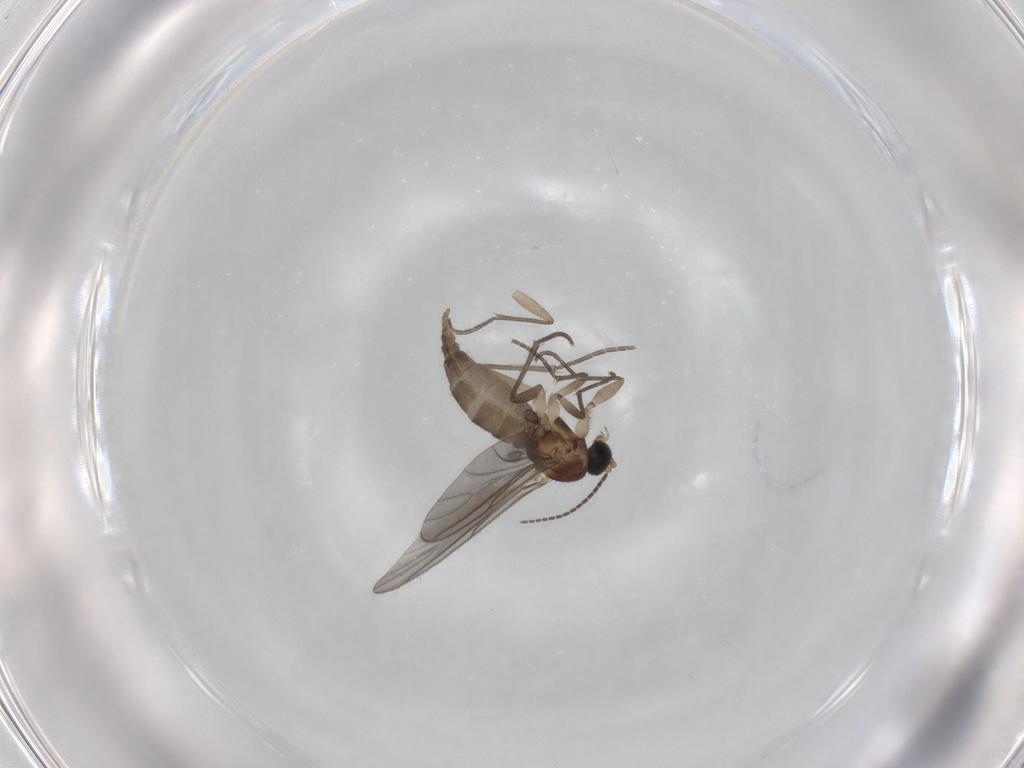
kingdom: Animalia
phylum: Arthropoda
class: Insecta
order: Diptera
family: Sciaridae
